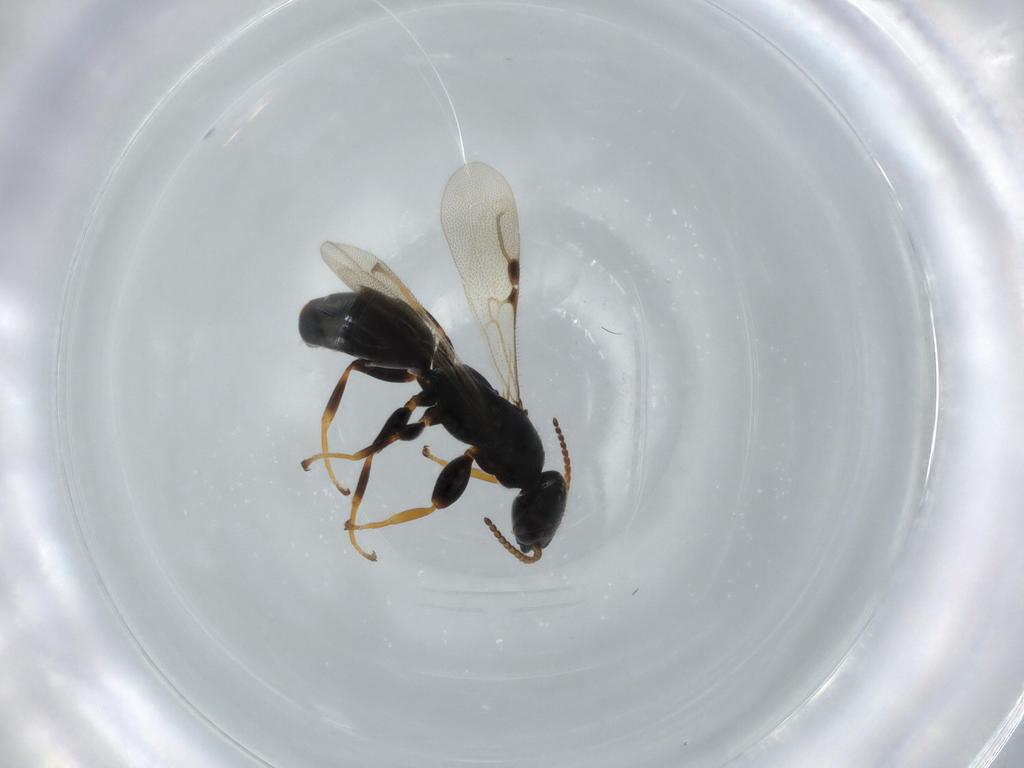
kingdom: Animalia
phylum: Arthropoda
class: Insecta
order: Hymenoptera
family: Bethylidae
